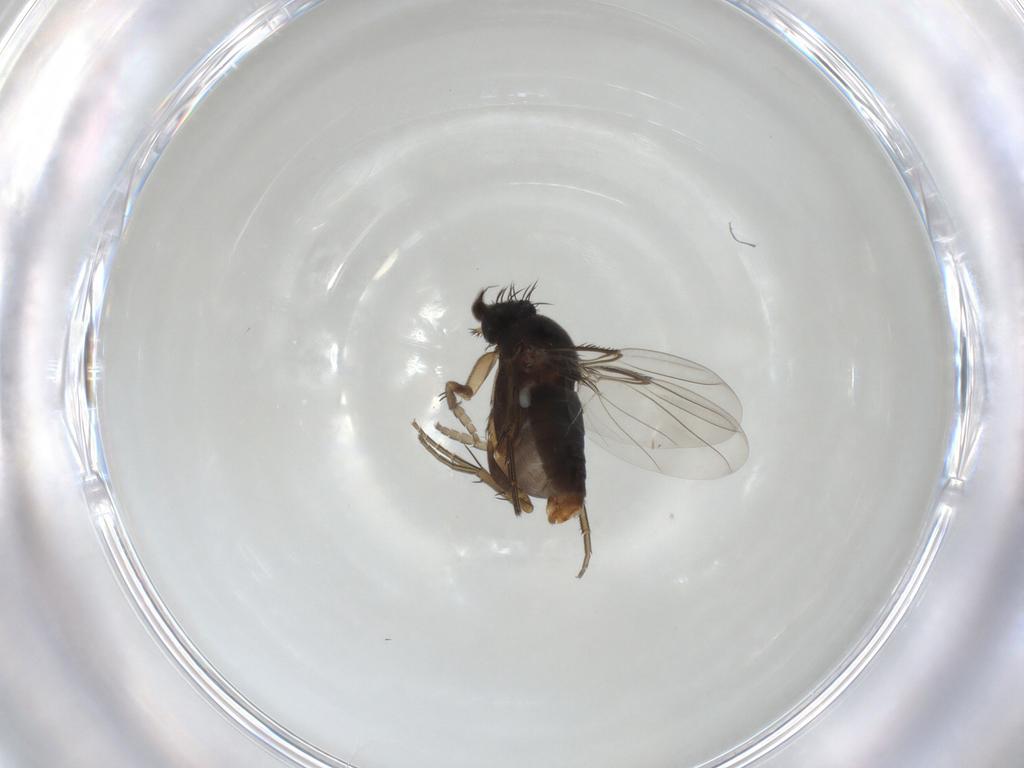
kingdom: Animalia
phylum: Arthropoda
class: Insecta
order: Diptera
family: Phoridae
